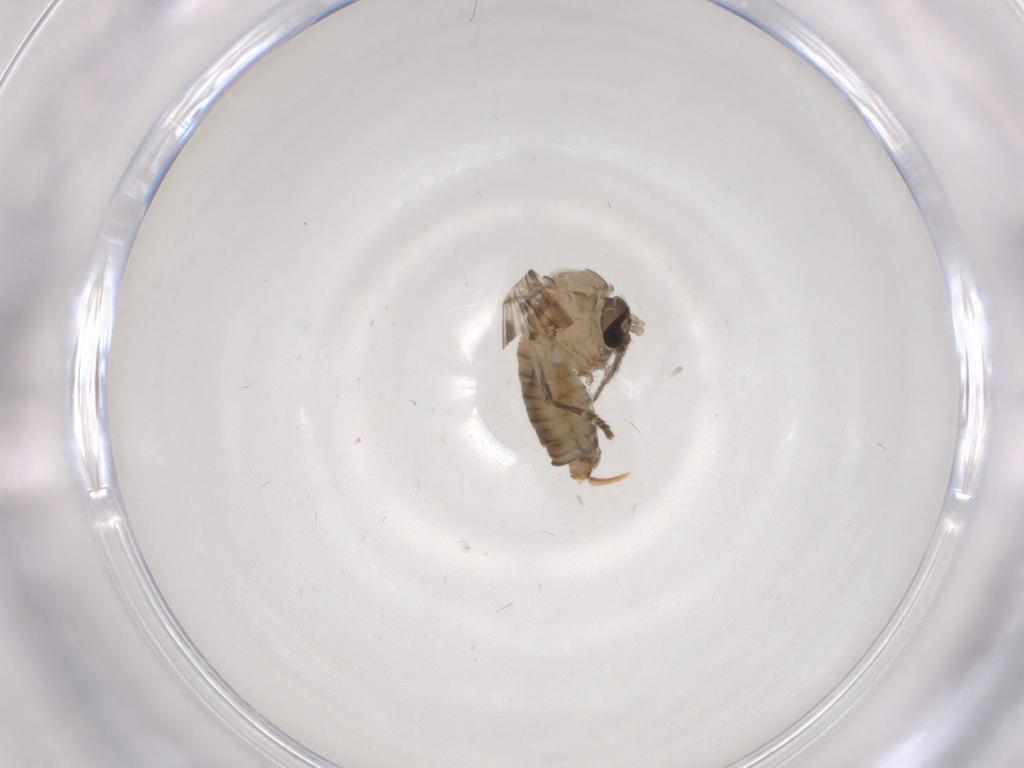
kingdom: Animalia
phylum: Arthropoda
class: Insecta
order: Diptera
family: Psychodidae
